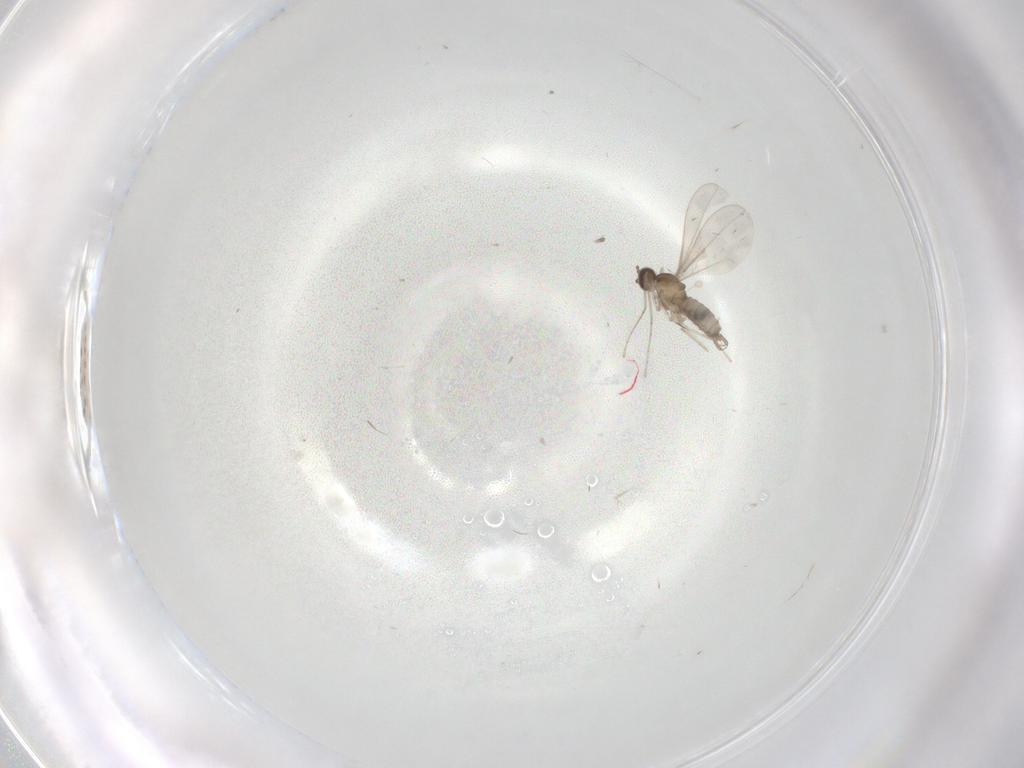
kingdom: Animalia
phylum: Arthropoda
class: Insecta
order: Diptera
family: Cecidomyiidae
